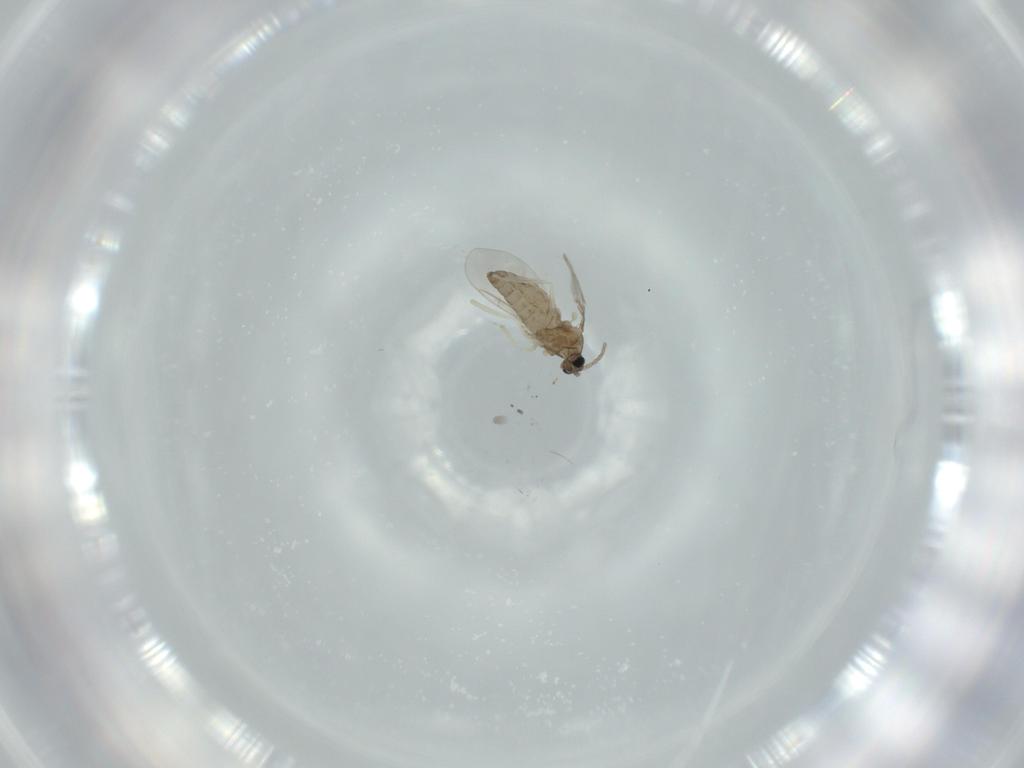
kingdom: Animalia
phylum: Arthropoda
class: Insecta
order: Diptera
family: Cecidomyiidae
